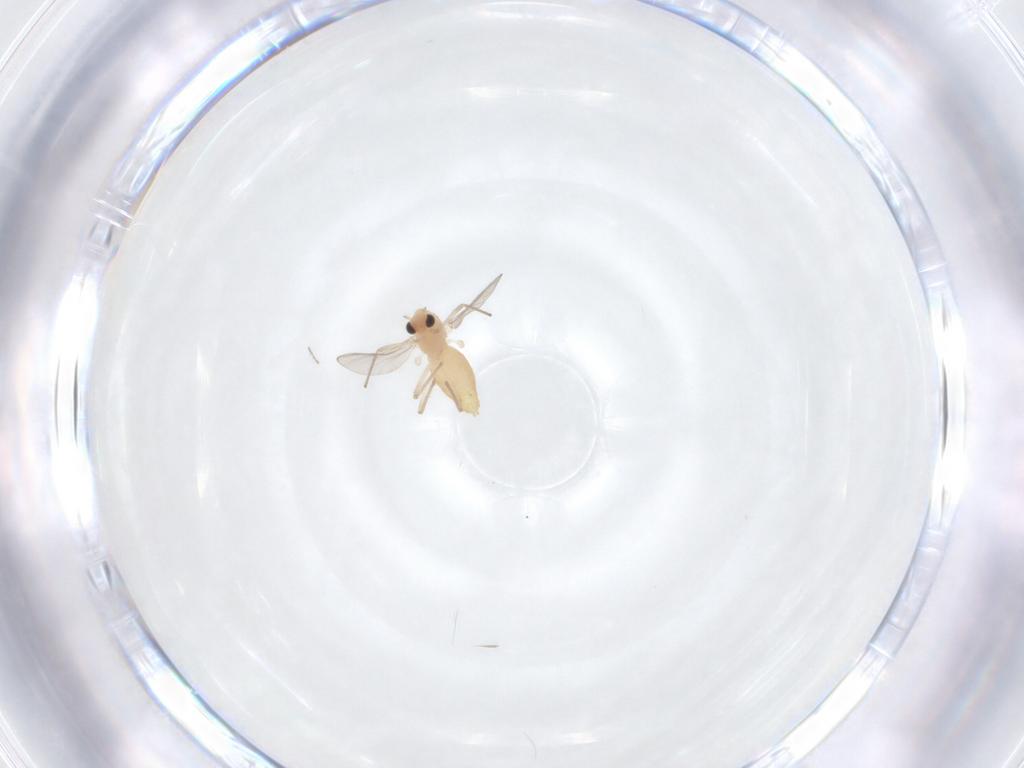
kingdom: Animalia
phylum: Arthropoda
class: Insecta
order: Diptera
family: Chironomidae
